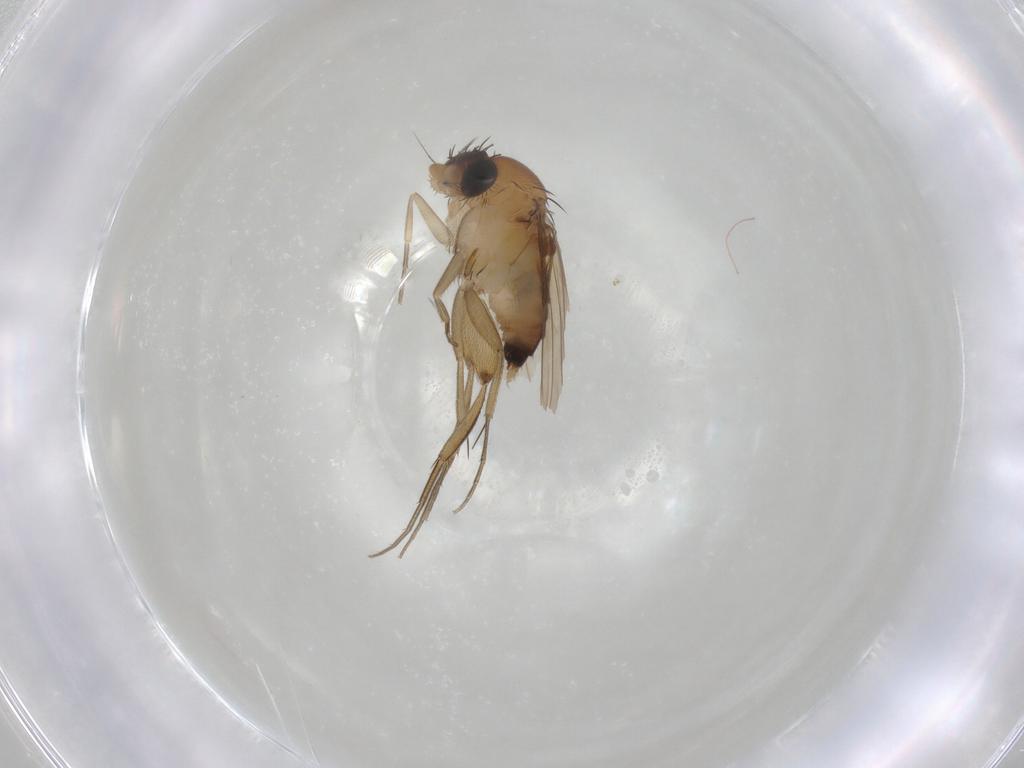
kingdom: Animalia
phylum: Arthropoda
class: Insecta
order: Diptera
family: Phoridae
